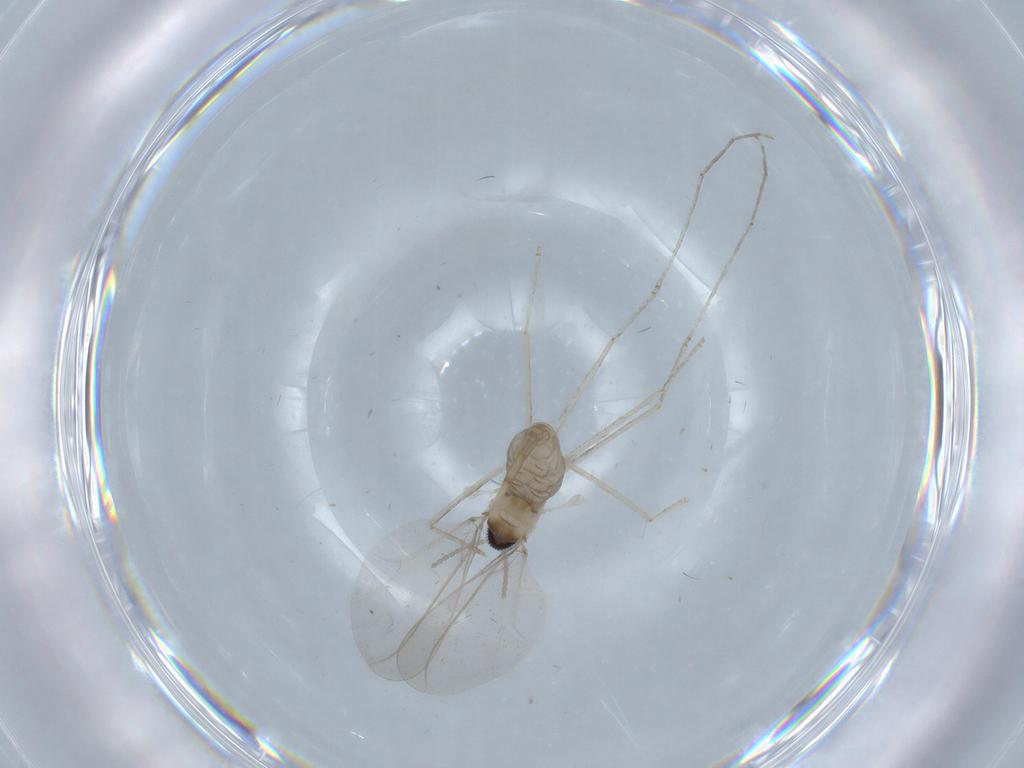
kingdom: Animalia
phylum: Arthropoda
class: Insecta
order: Diptera
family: Cecidomyiidae
